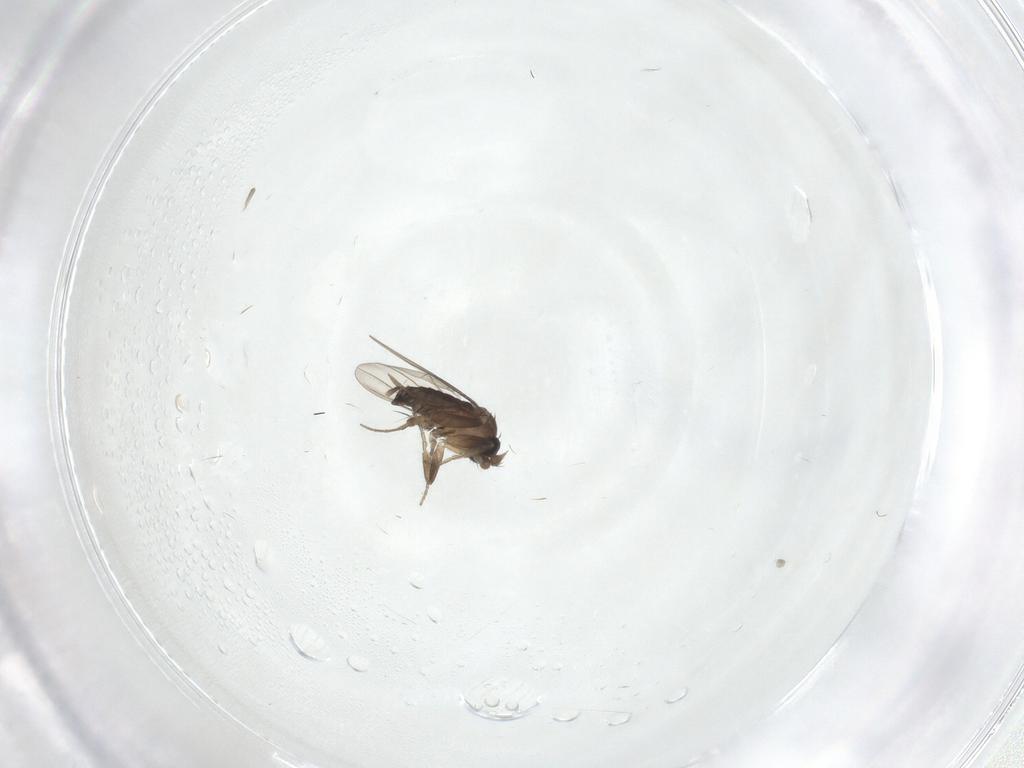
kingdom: Animalia
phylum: Arthropoda
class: Insecta
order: Diptera
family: Phoridae
